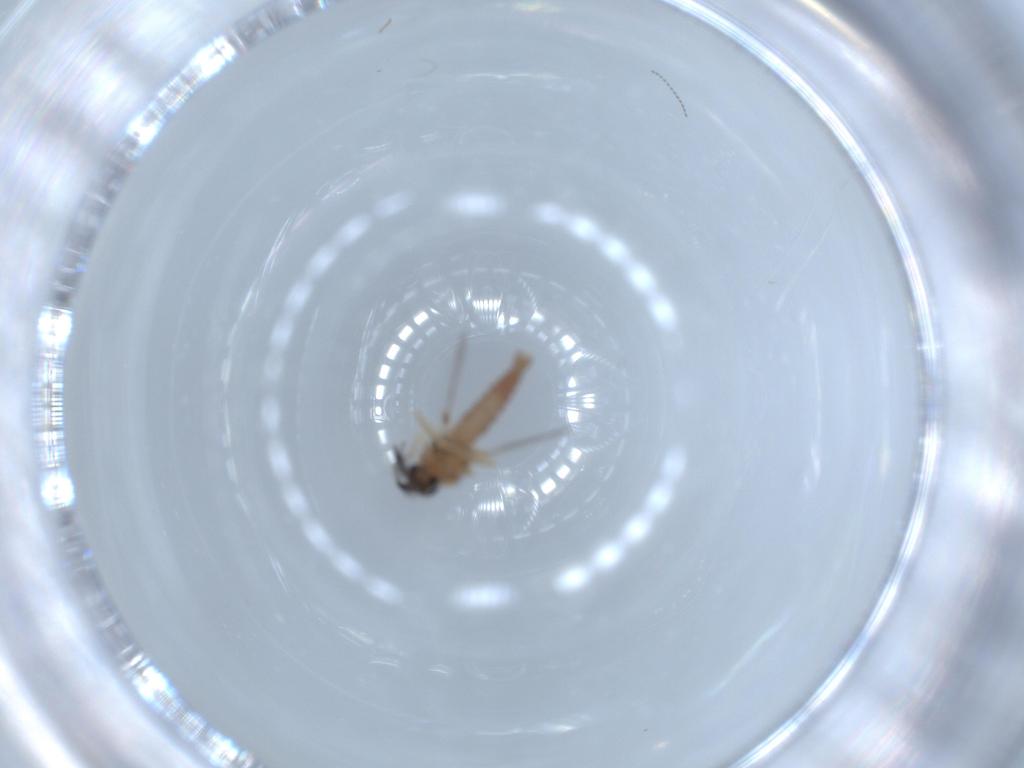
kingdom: Animalia
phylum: Arthropoda
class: Insecta
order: Diptera
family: Ceratopogonidae
